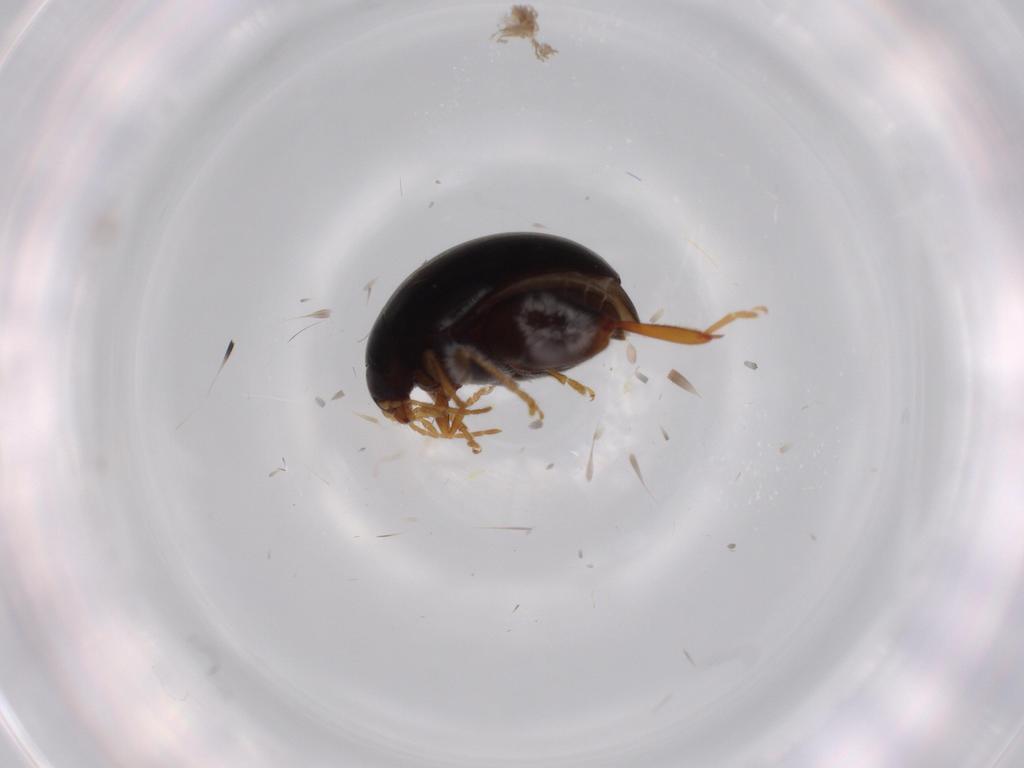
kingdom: Animalia
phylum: Arthropoda
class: Insecta
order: Coleoptera
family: Chrysomelidae
